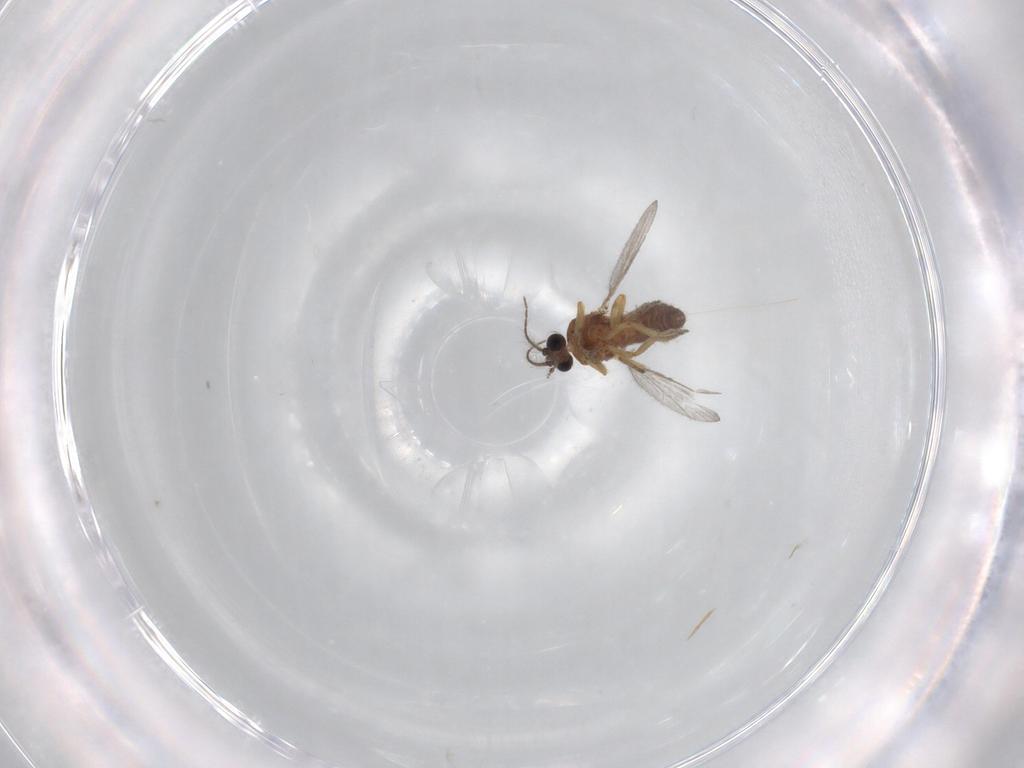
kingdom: Animalia
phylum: Arthropoda
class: Insecta
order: Diptera
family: Ceratopogonidae
